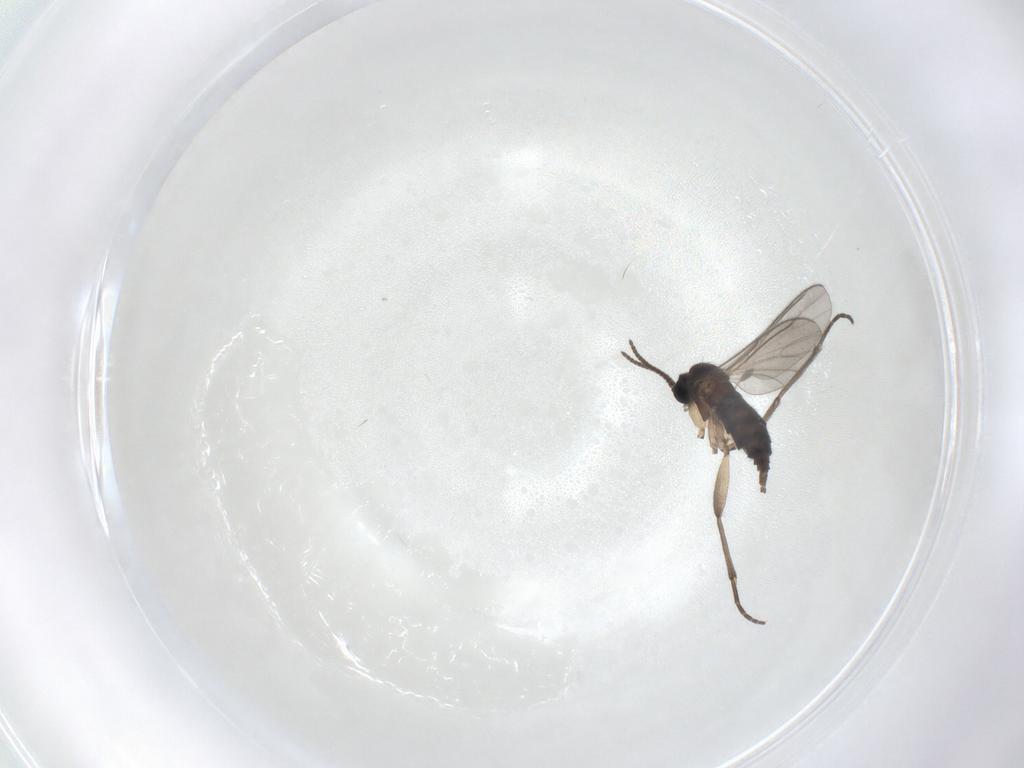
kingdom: Animalia
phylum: Arthropoda
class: Insecta
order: Diptera
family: Sciaridae
